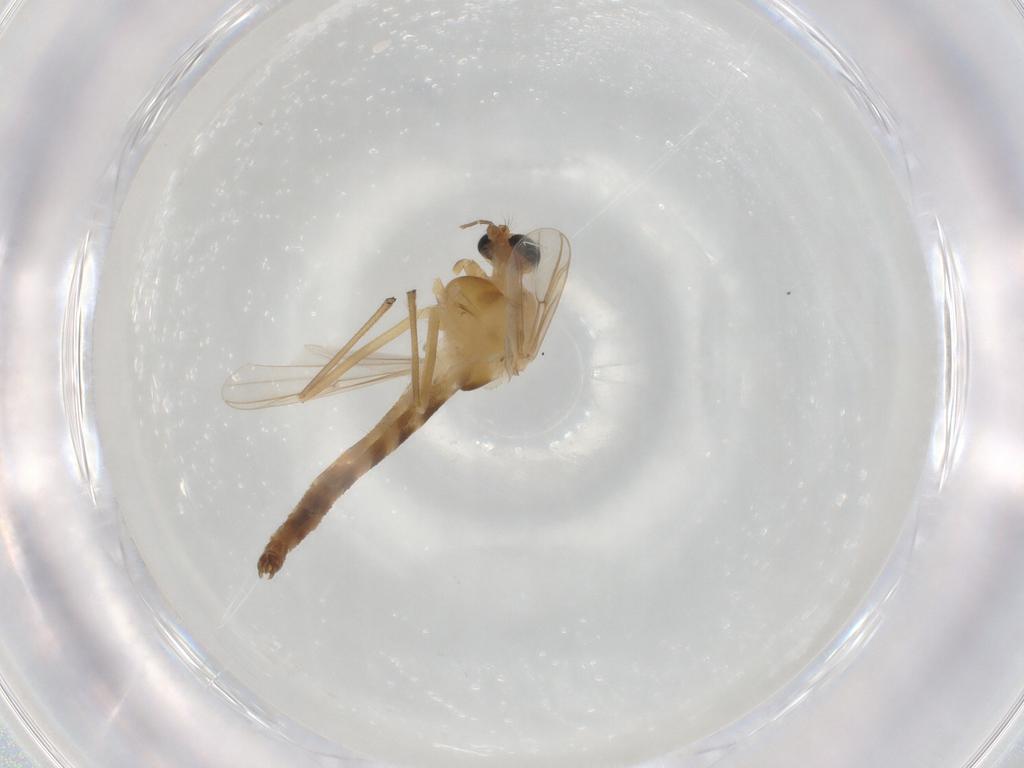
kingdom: Animalia
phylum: Arthropoda
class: Insecta
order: Diptera
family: Chironomidae
